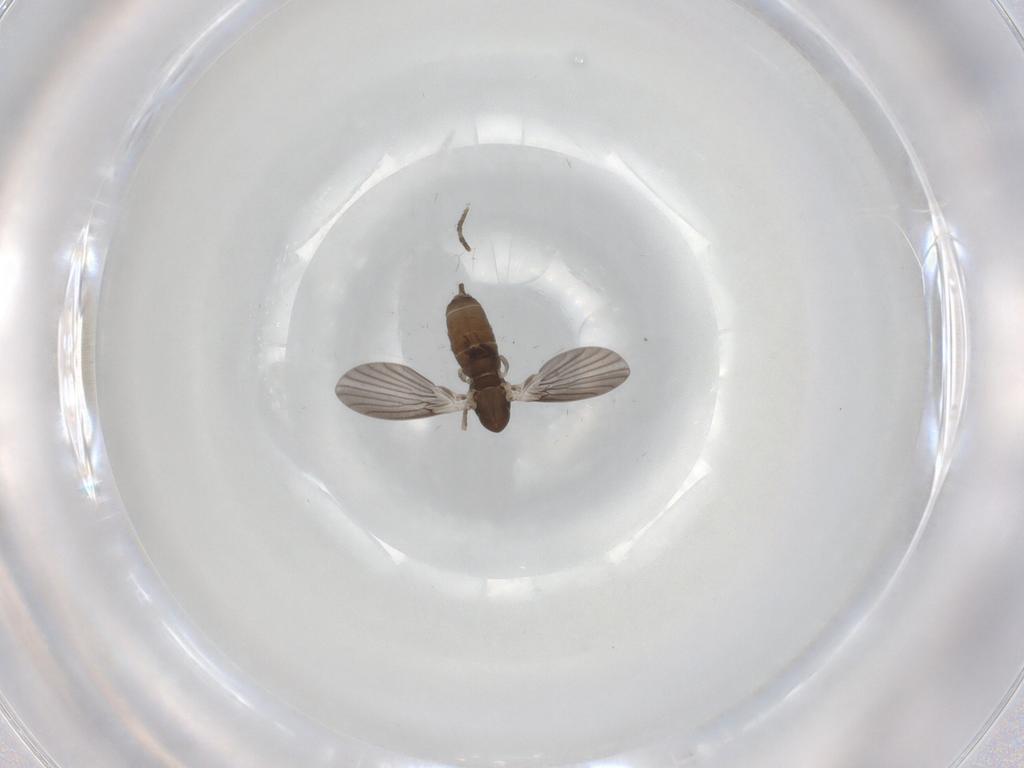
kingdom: Animalia
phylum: Arthropoda
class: Insecta
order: Diptera
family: Cecidomyiidae
